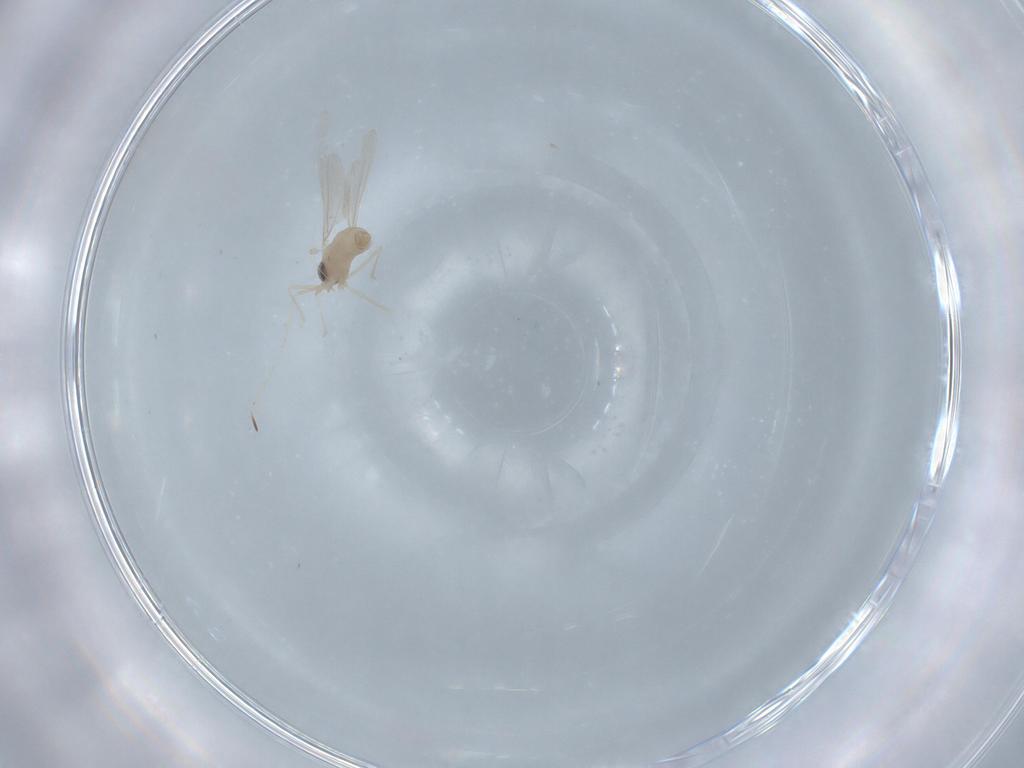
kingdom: Animalia
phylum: Arthropoda
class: Insecta
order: Diptera
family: Cecidomyiidae
